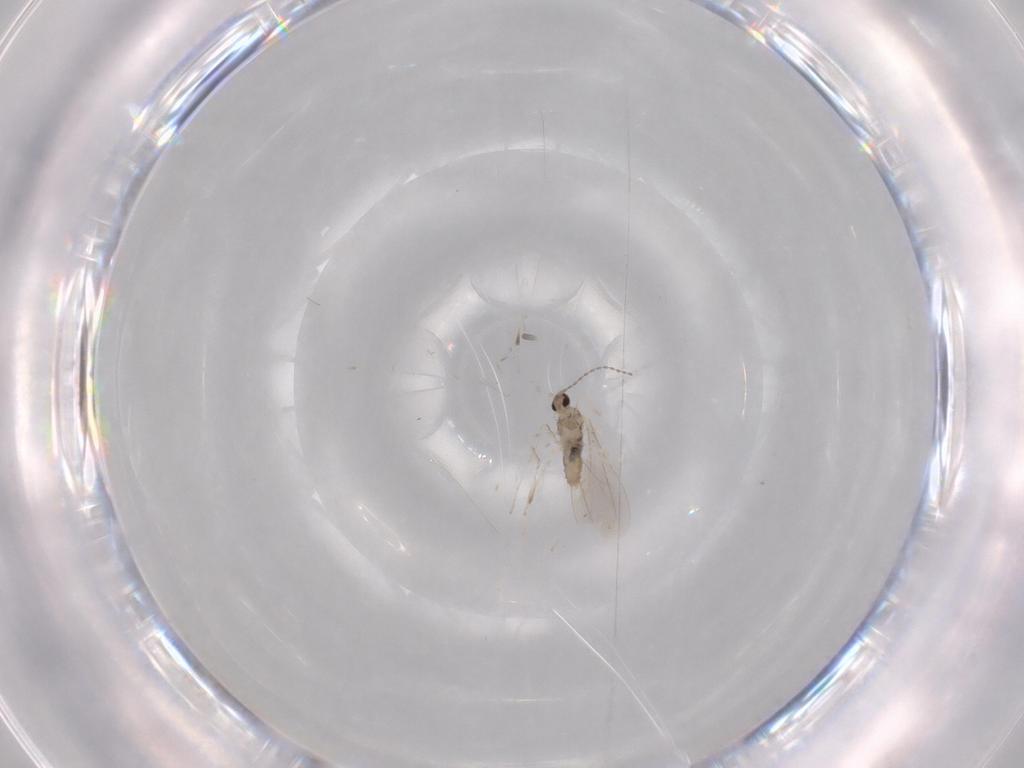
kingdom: Animalia
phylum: Arthropoda
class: Insecta
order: Diptera
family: Cecidomyiidae
